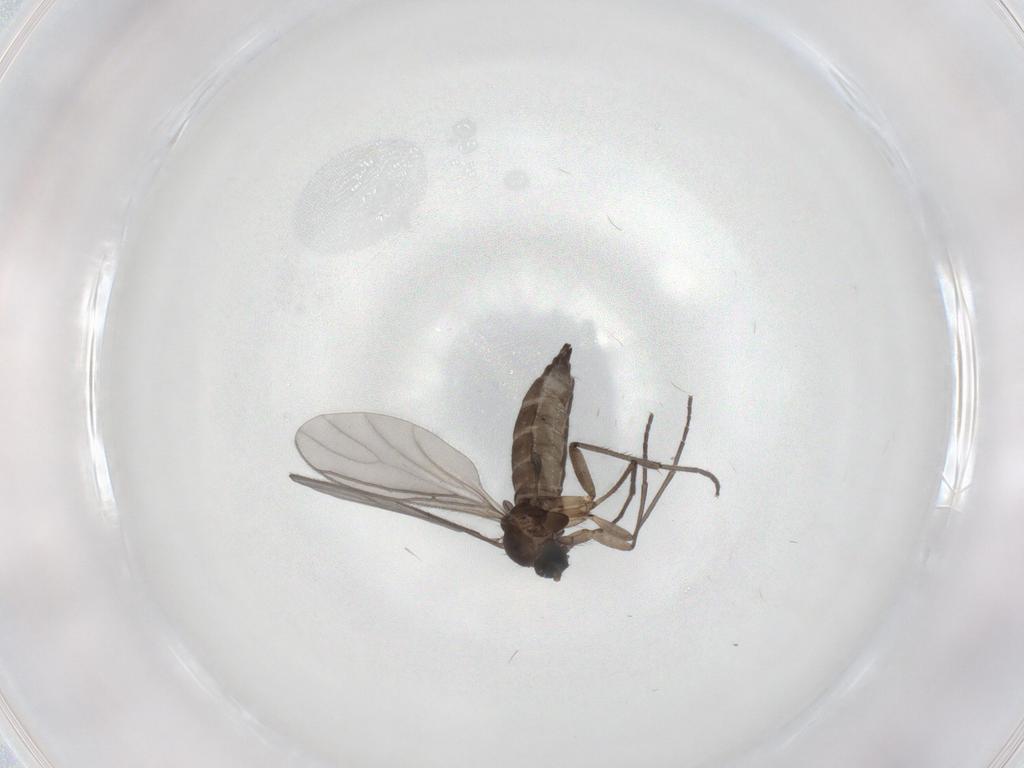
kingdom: Animalia
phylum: Arthropoda
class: Insecta
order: Diptera
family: Sciaridae
